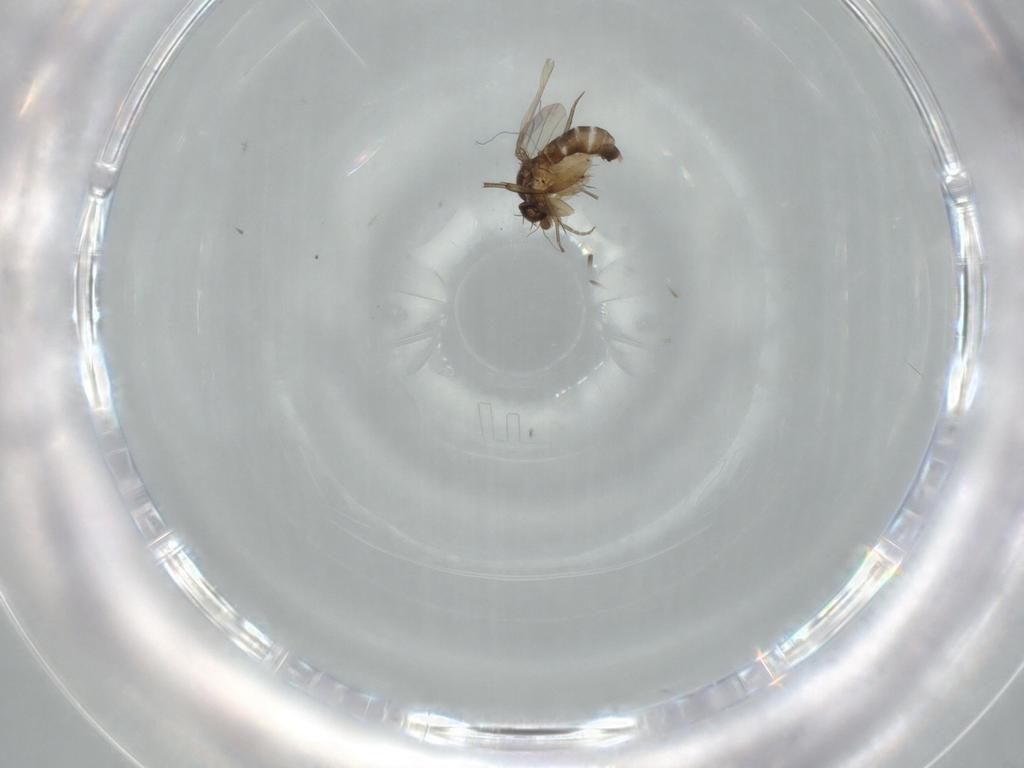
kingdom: Animalia
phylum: Arthropoda
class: Insecta
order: Diptera
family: Phoridae
